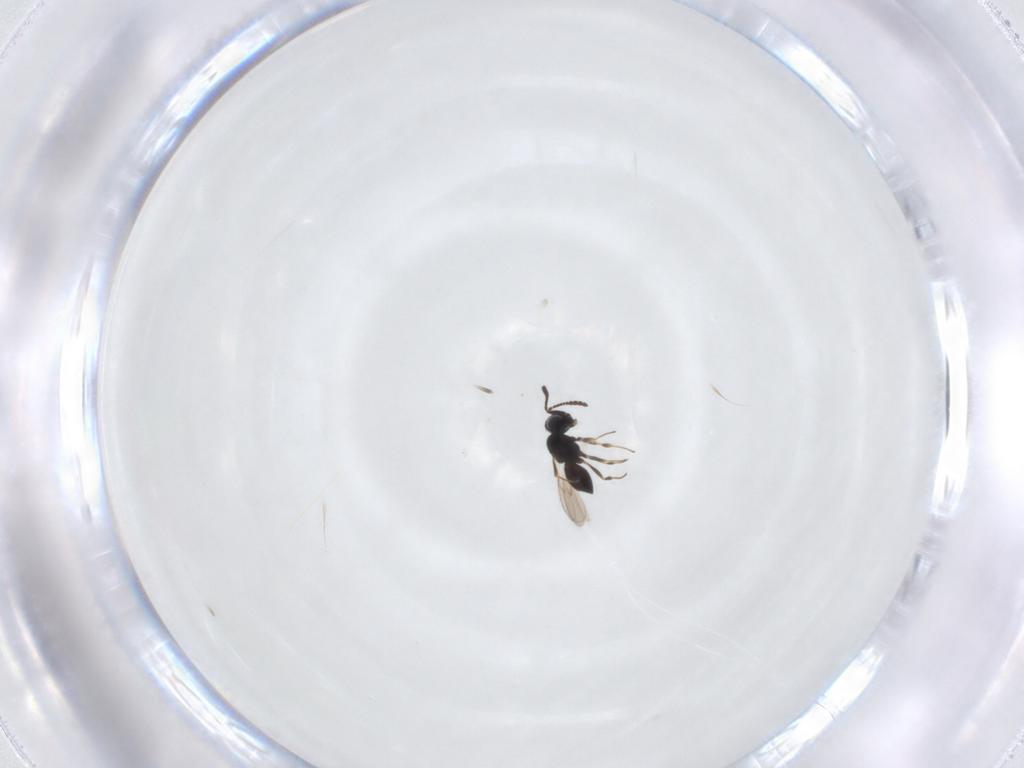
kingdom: Animalia
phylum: Arthropoda
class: Insecta
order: Hymenoptera
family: Scelionidae
